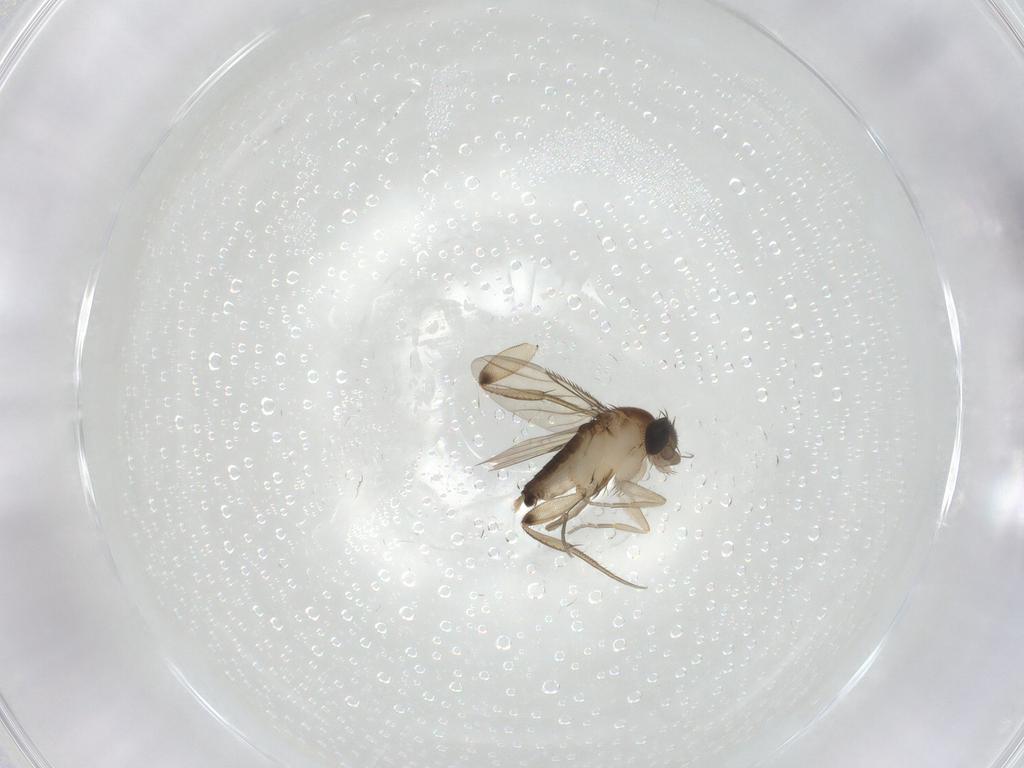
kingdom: Animalia
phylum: Arthropoda
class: Insecta
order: Diptera
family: Phoridae
